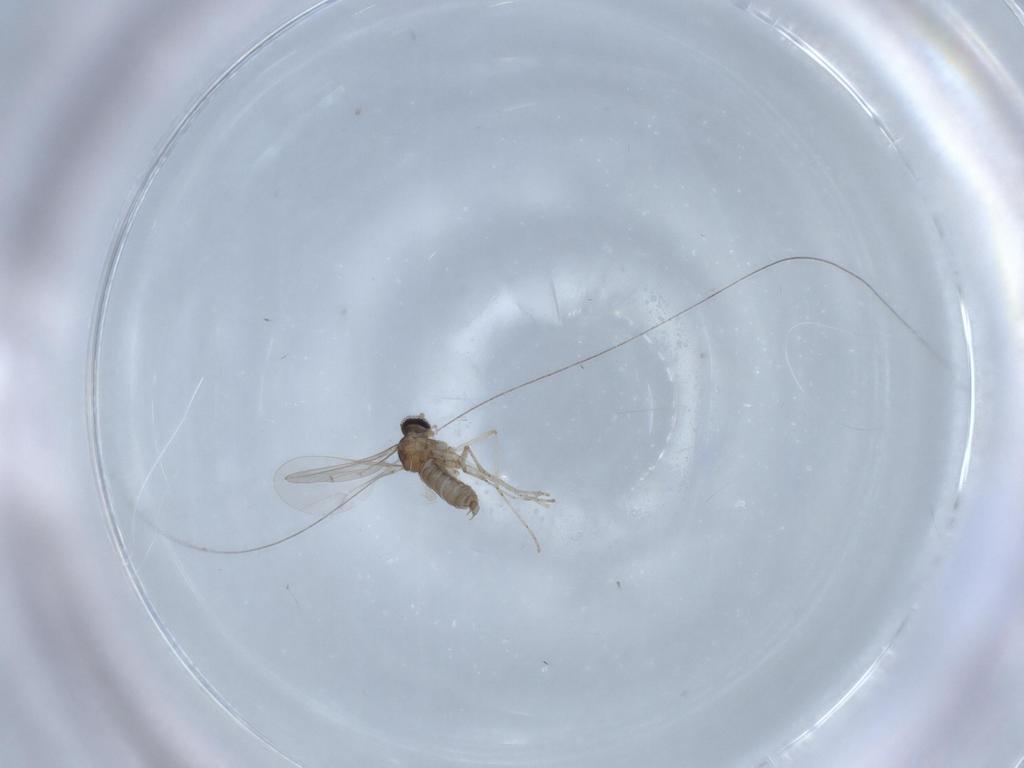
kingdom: Animalia
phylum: Arthropoda
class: Insecta
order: Diptera
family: Cecidomyiidae
